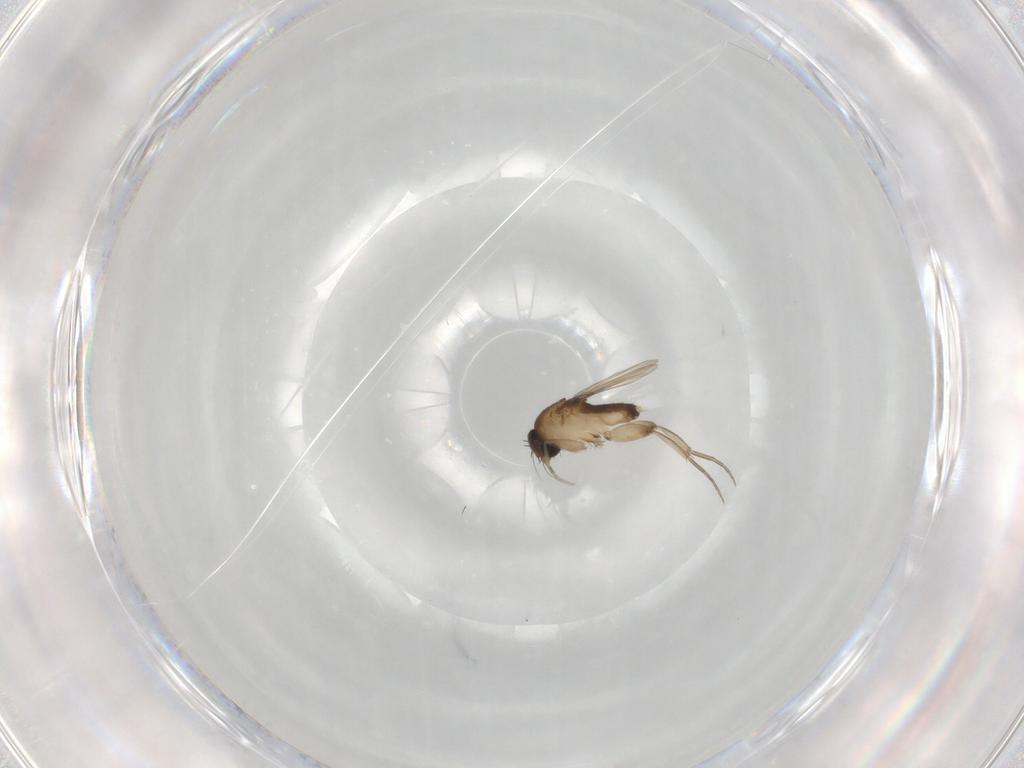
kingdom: Animalia
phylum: Arthropoda
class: Insecta
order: Diptera
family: Phoridae
